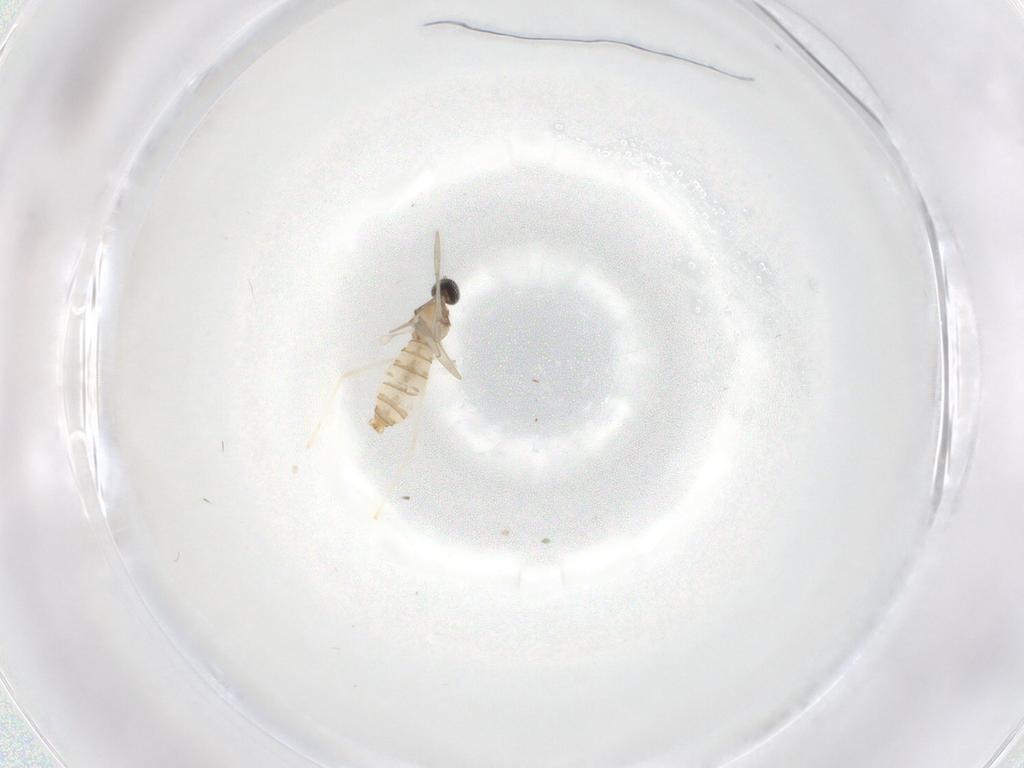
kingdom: Animalia
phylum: Arthropoda
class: Insecta
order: Diptera
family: Cecidomyiidae
